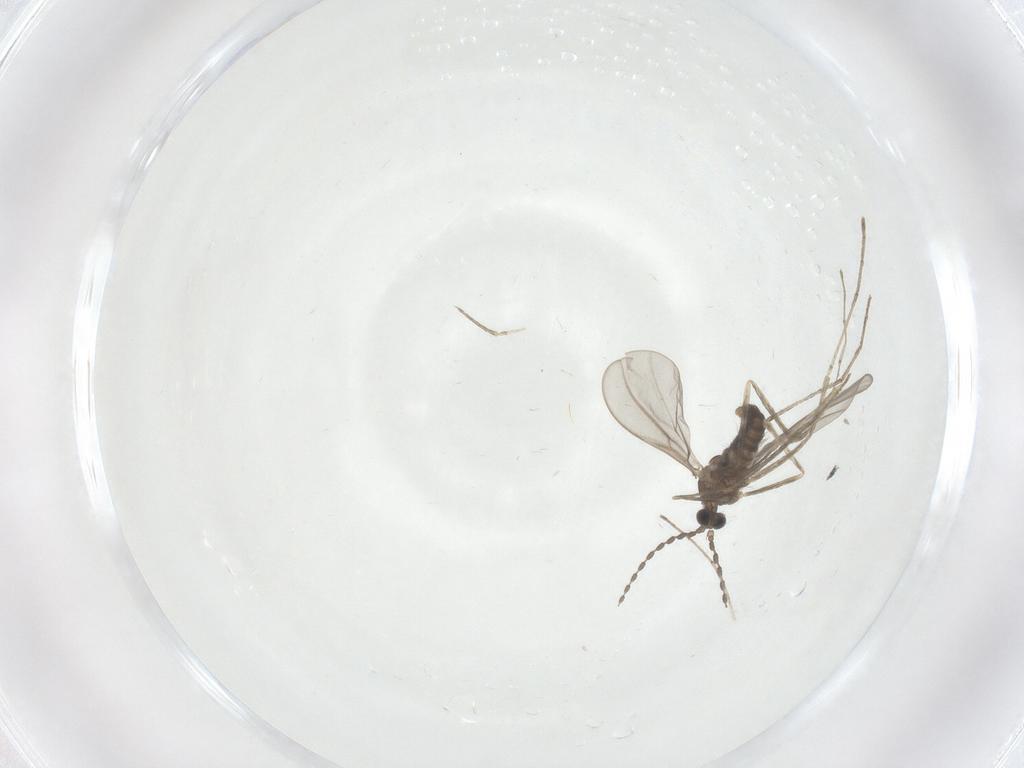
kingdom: Animalia
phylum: Arthropoda
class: Insecta
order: Diptera
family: Cecidomyiidae
